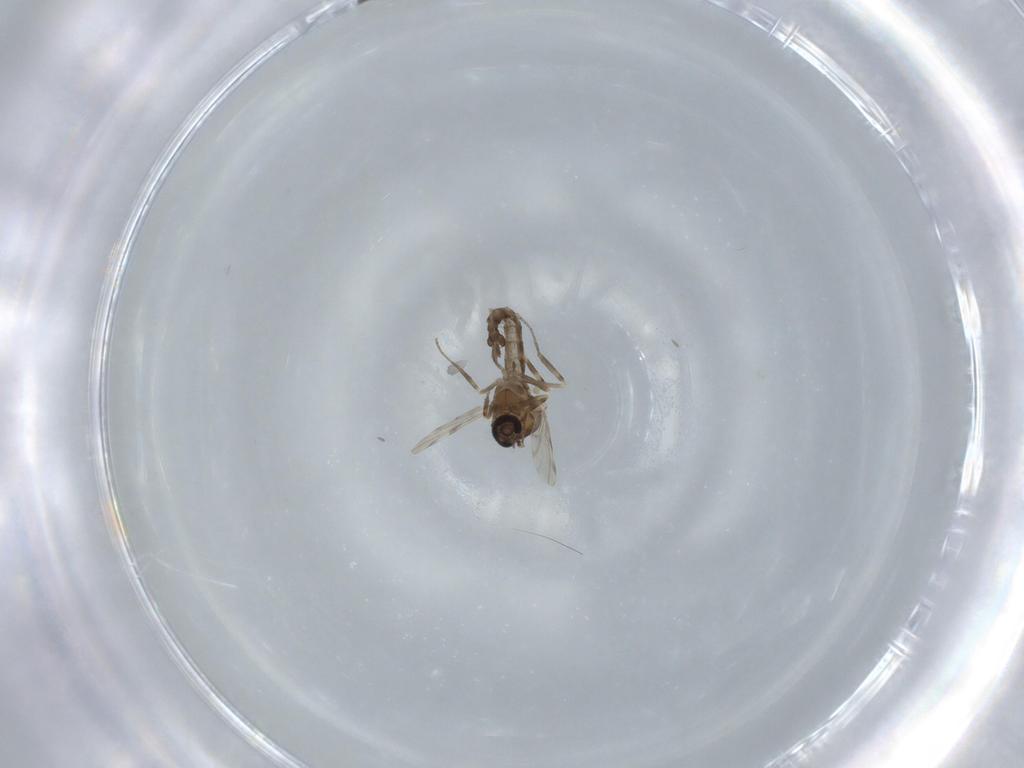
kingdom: Animalia
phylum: Arthropoda
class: Insecta
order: Diptera
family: Ceratopogonidae
